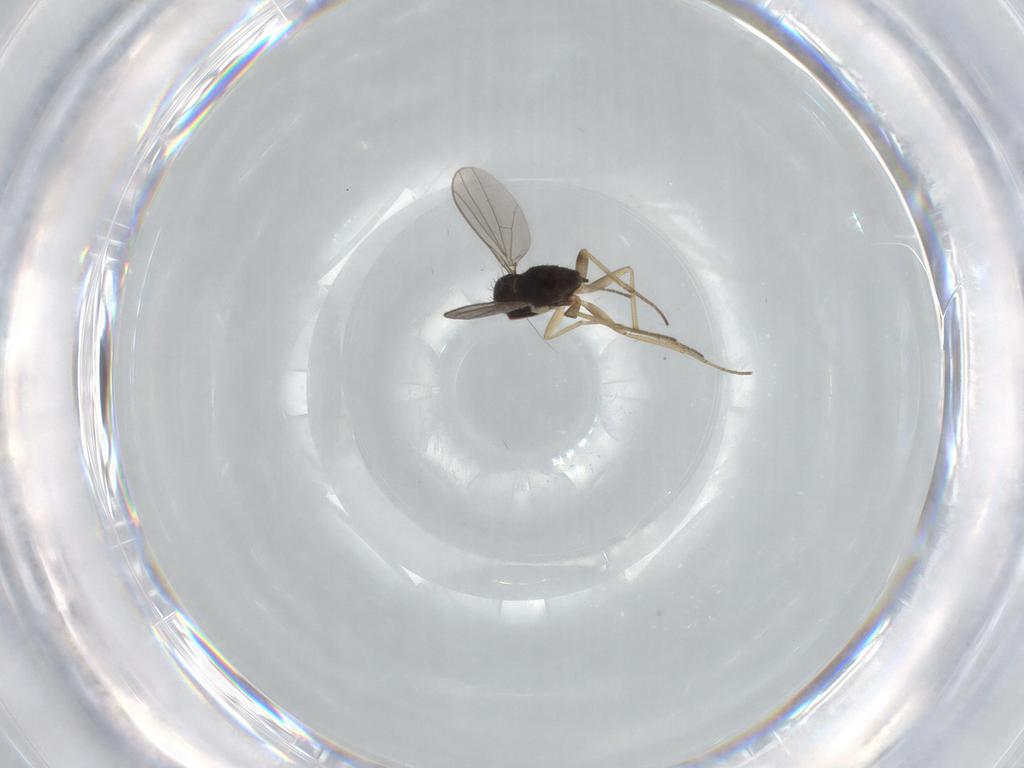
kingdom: Animalia
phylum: Arthropoda
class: Insecta
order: Diptera
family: Dolichopodidae
